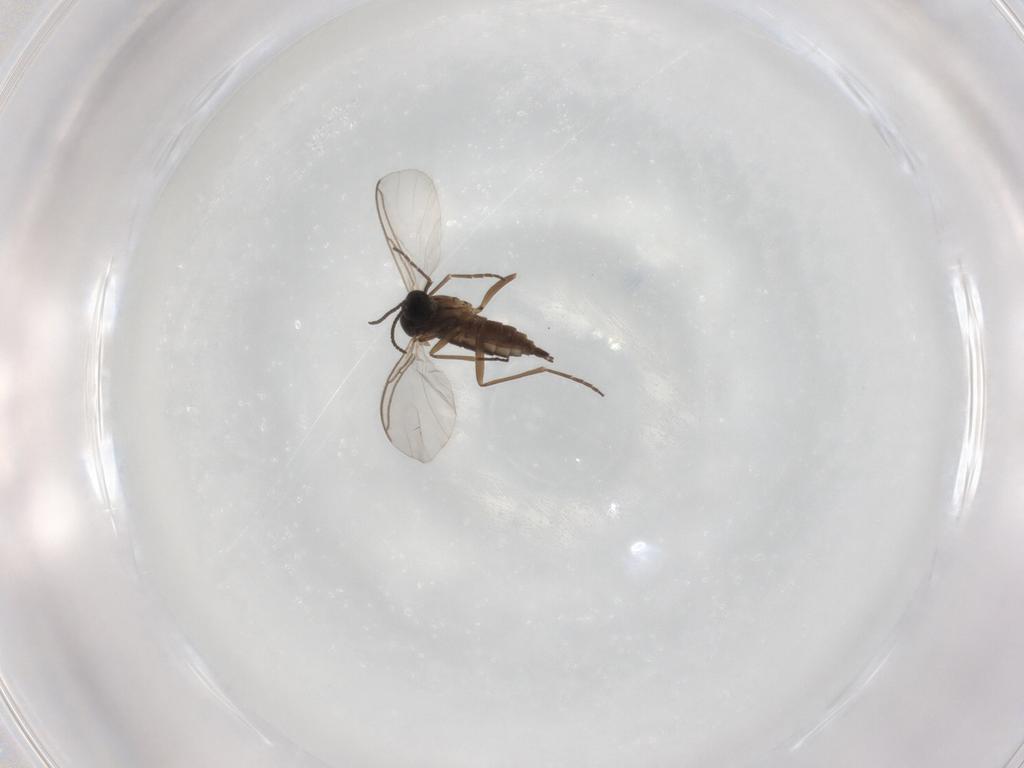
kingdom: Animalia
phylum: Arthropoda
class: Insecta
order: Diptera
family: Sciaridae
